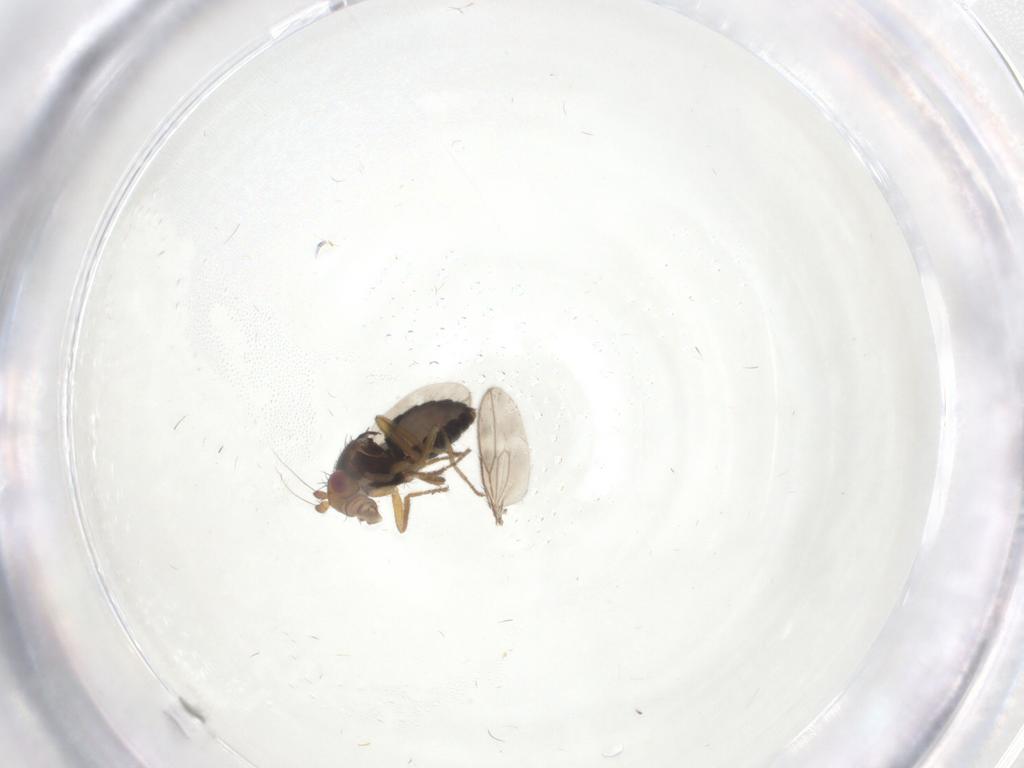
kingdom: Animalia
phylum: Arthropoda
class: Insecta
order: Diptera
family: Sphaeroceridae
